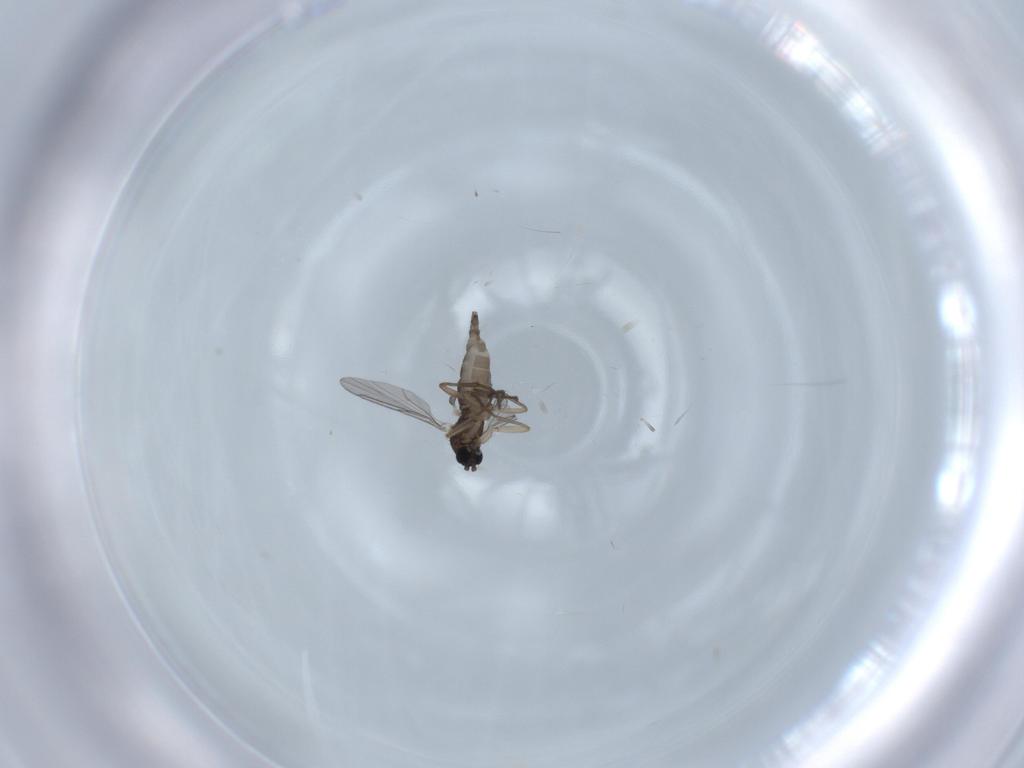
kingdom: Animalia
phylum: Arthropoda
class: Insecta
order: Diptera
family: Sciaridae
